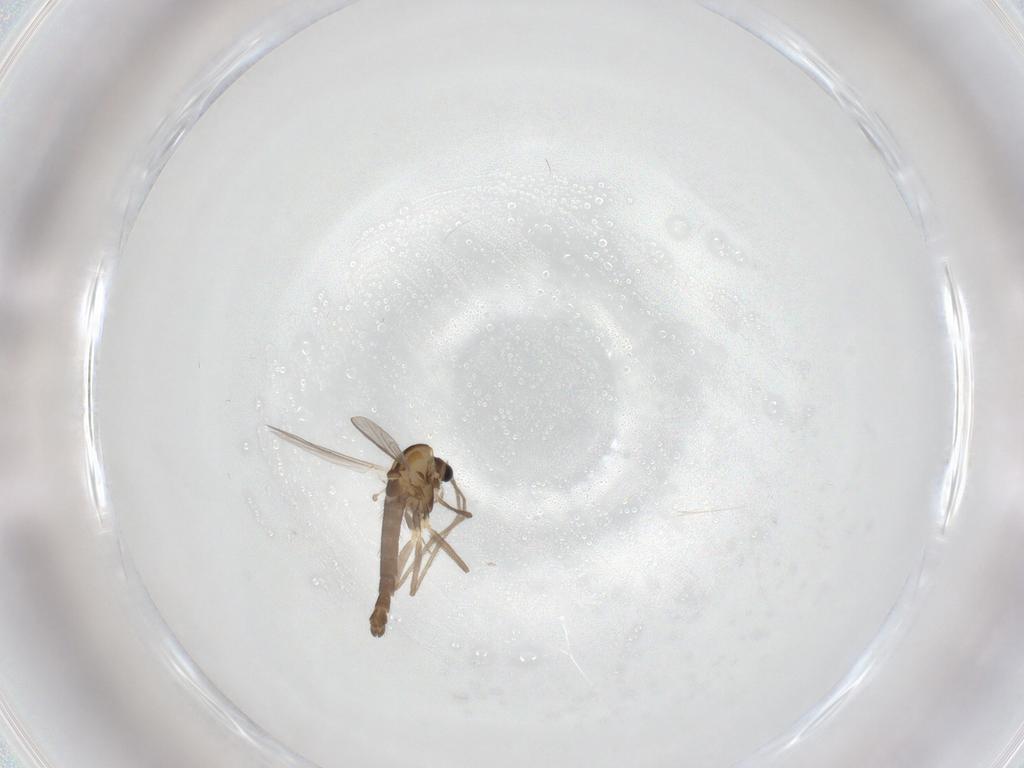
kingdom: Animalia
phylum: Arthropoda
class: Insecta
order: Diptera
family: Chironomidae
